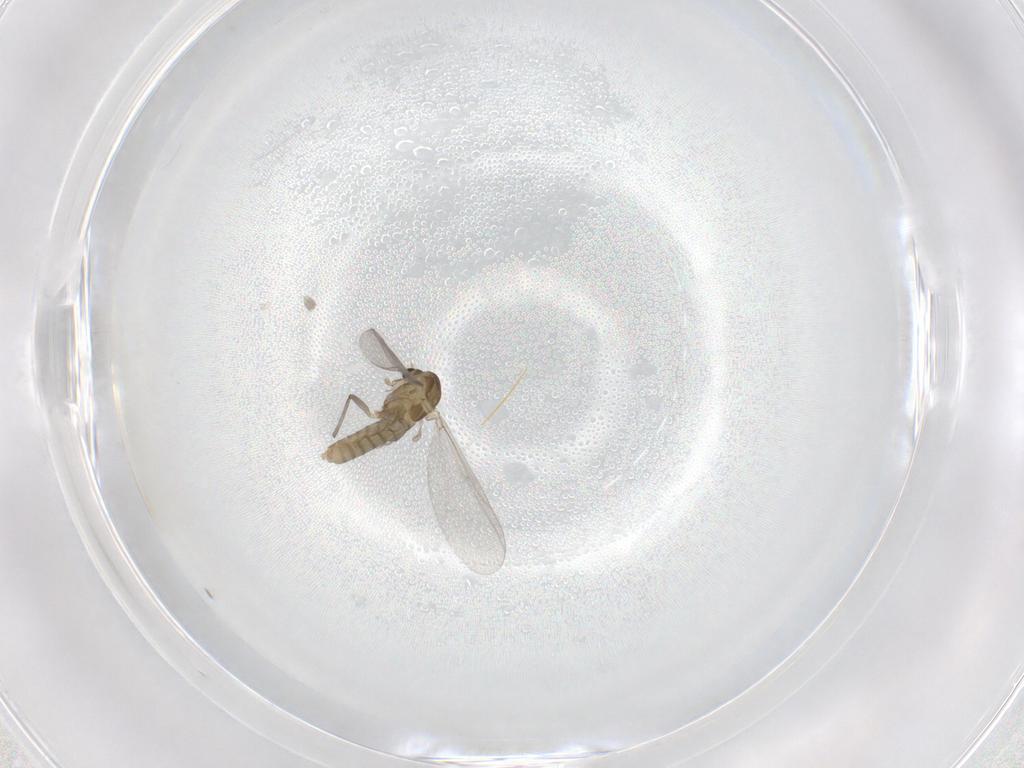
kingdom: Animalia
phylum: Arthropoda
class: Insecta
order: Diptera
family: Chironomidae
